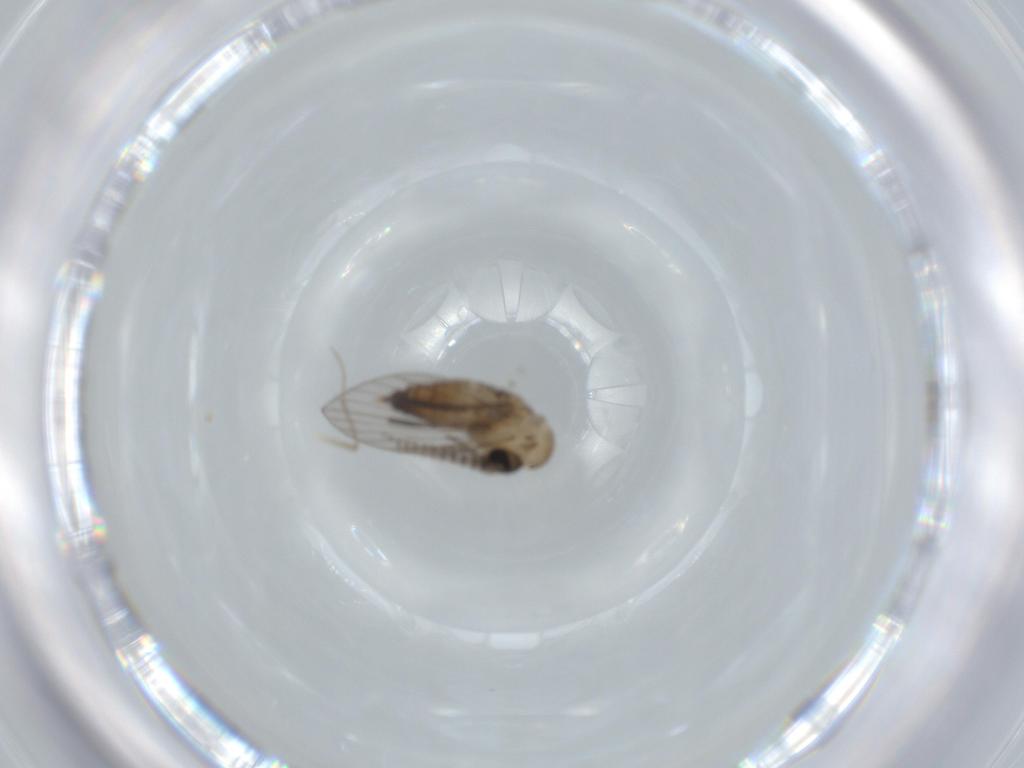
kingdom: Animalia
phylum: Arthropoda
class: Insecta
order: Diptera
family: Psychodidae
